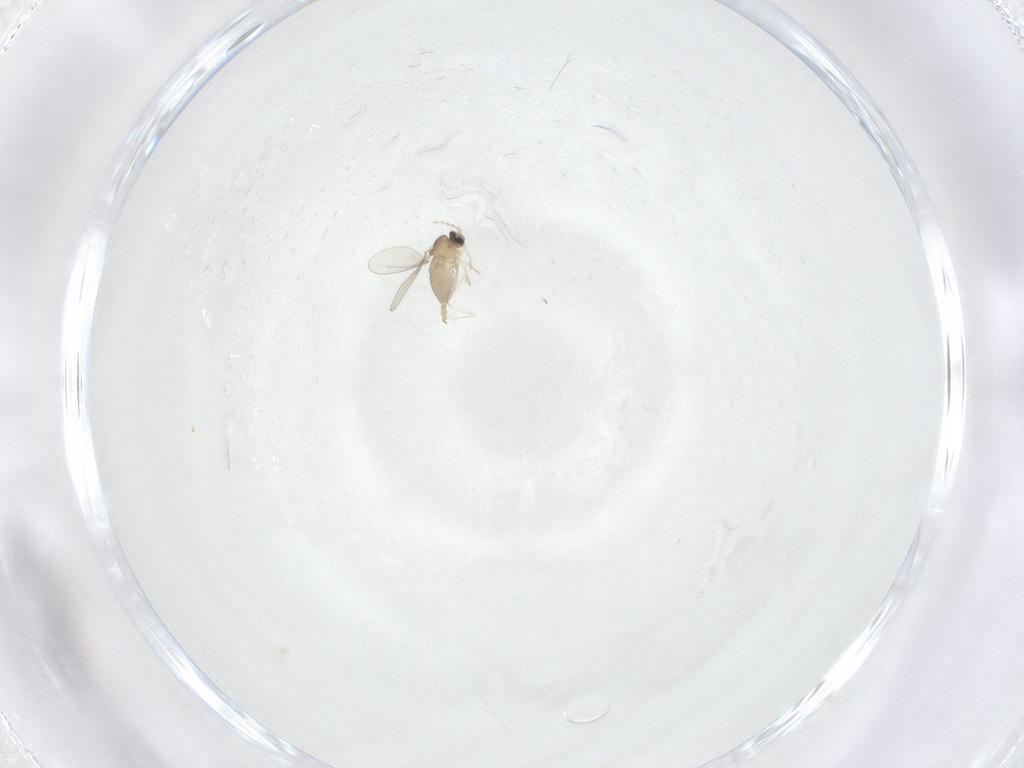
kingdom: Animalia
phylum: Arthropoda
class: Insecta
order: Diptera
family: Cecidomyiidae
